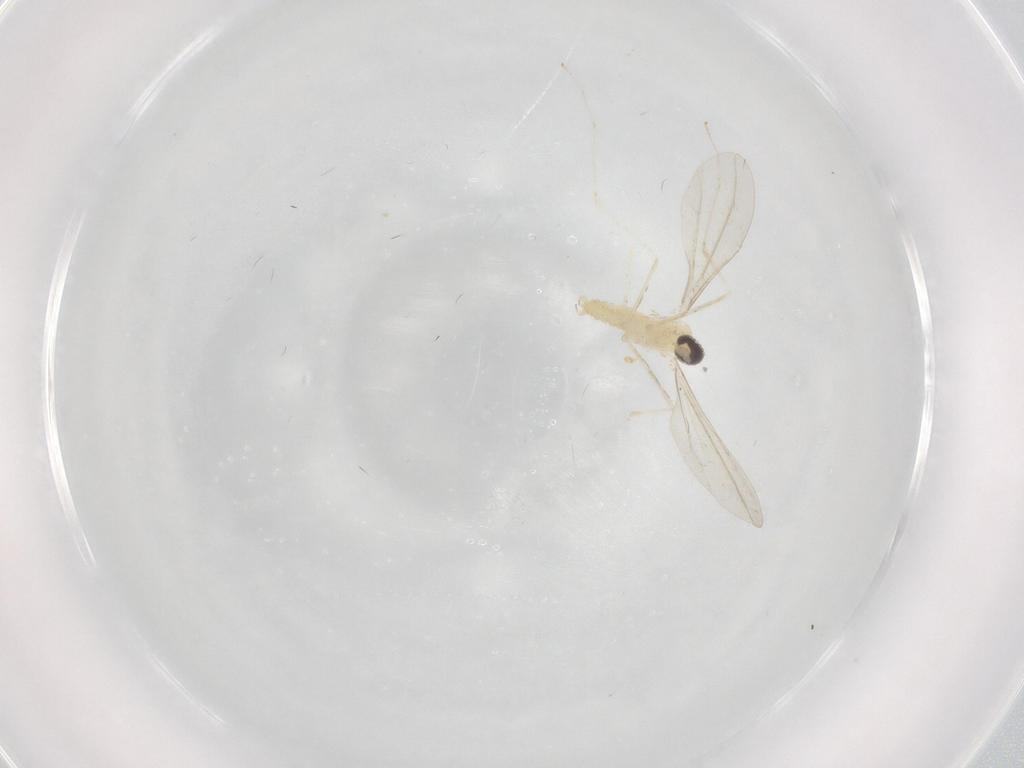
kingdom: Animalia
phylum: Arthropoda
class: Insecta
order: Diptera
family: Cecidomyiidae
